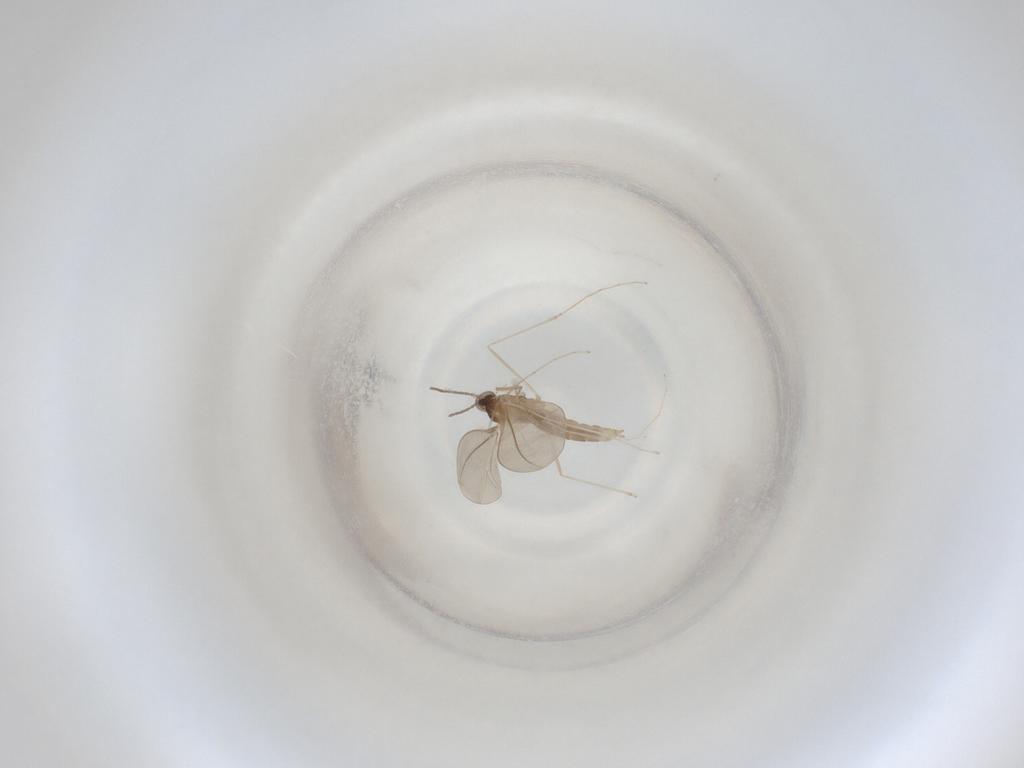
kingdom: Animalia
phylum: Arthropoda
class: Insecta
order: Diptera
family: Cecidomyiidae
